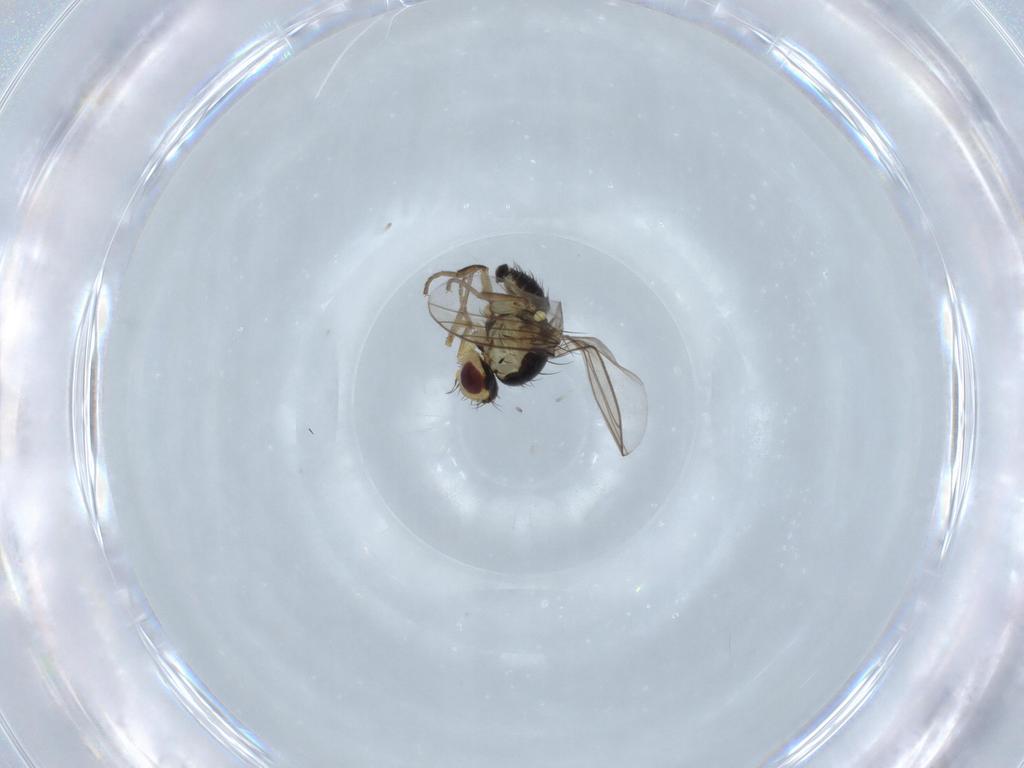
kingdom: Animalia
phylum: Arthropoda
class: Insecta
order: Diptera
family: Agromyzidae
